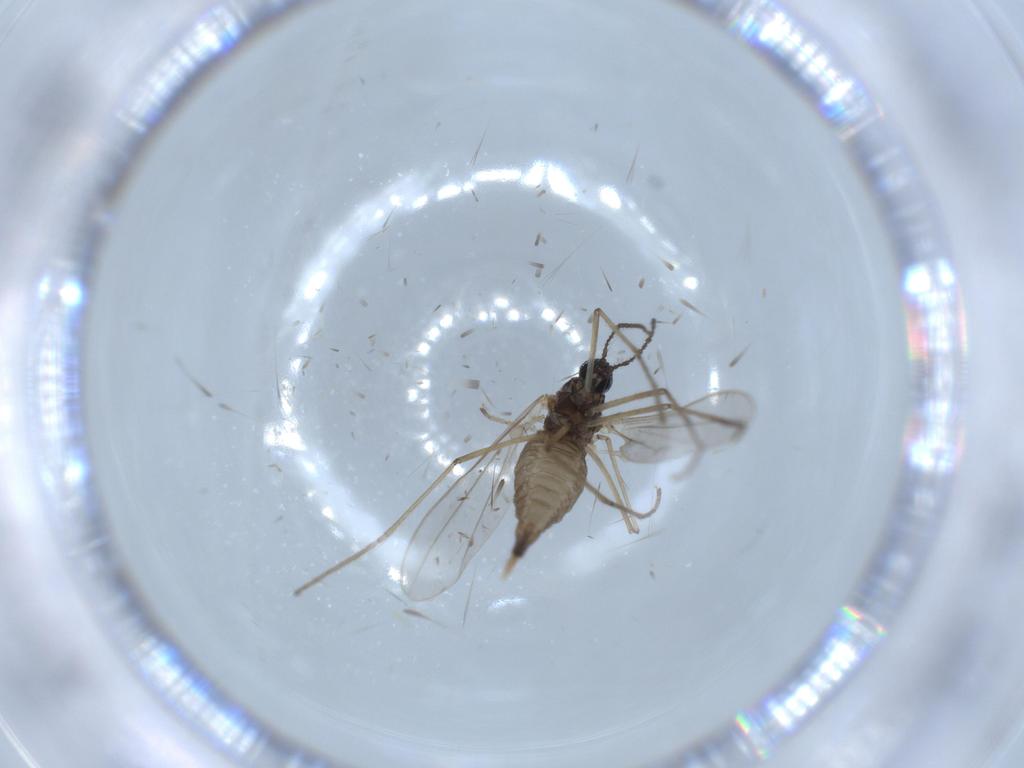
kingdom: Animalia
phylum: Arthropoda
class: Insecta
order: Diptera
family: Cecidomyiidae
